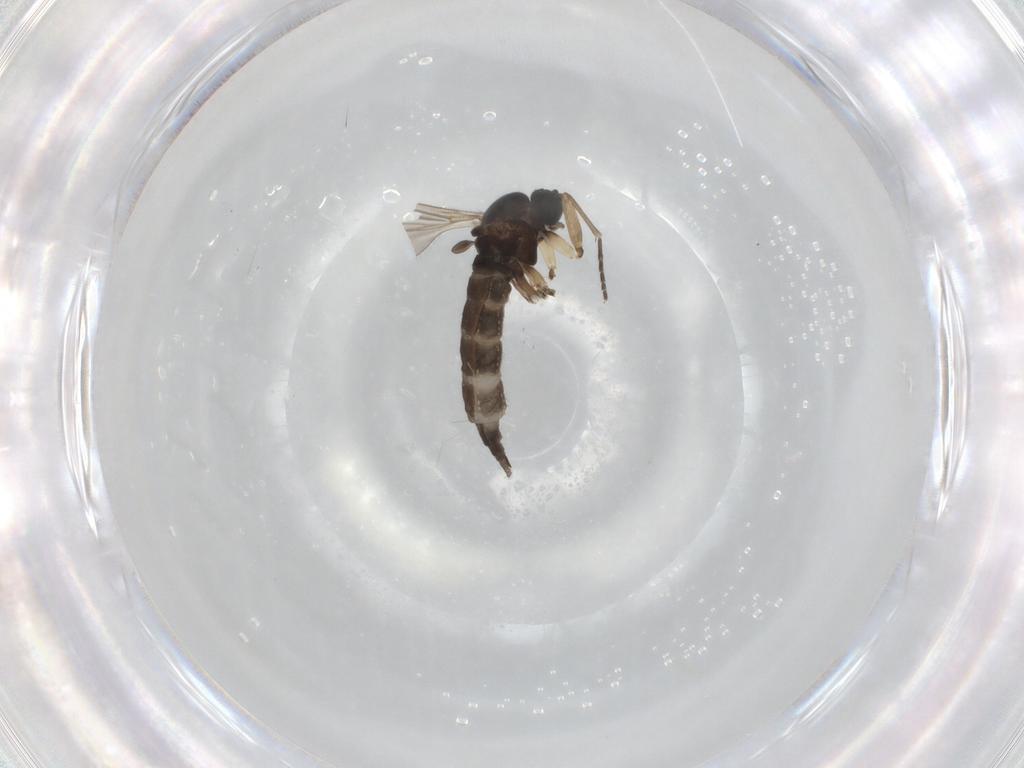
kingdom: Animalia
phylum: Arthropoda
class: Insecta
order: Diptera
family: Sciaridae
